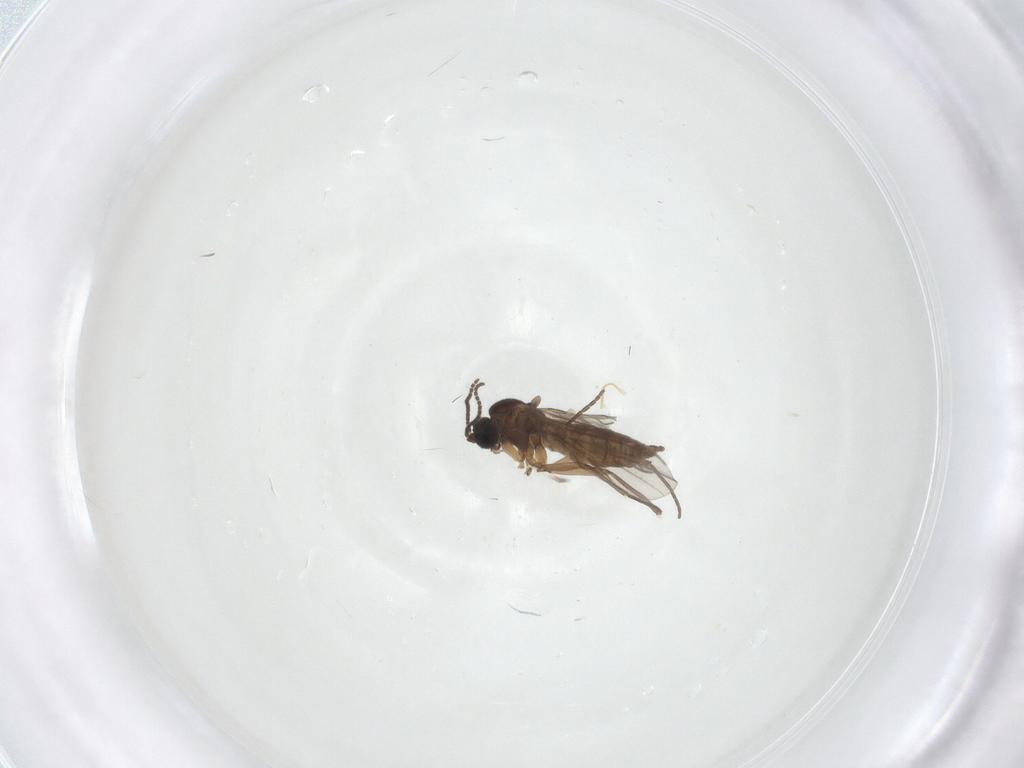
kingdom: Animalia
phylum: Arthropoda
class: Insecta
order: Diptera
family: Sciaridae
